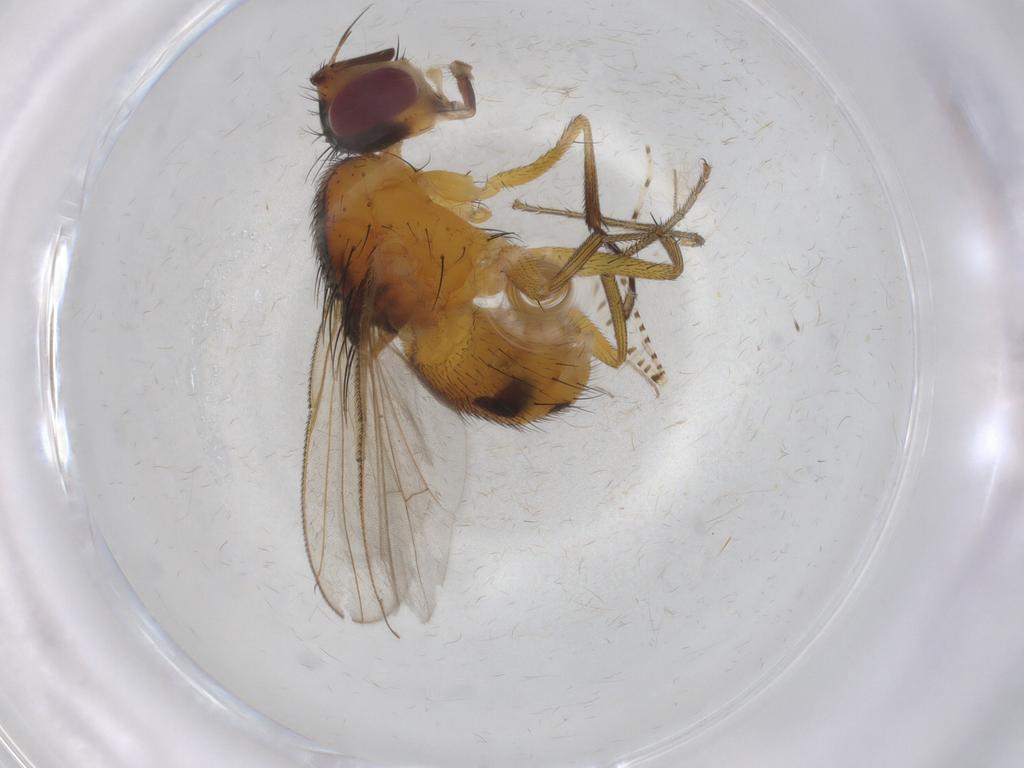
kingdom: Animalia
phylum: Arthropoda
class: Insecta
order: Diptera
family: Muscidae
